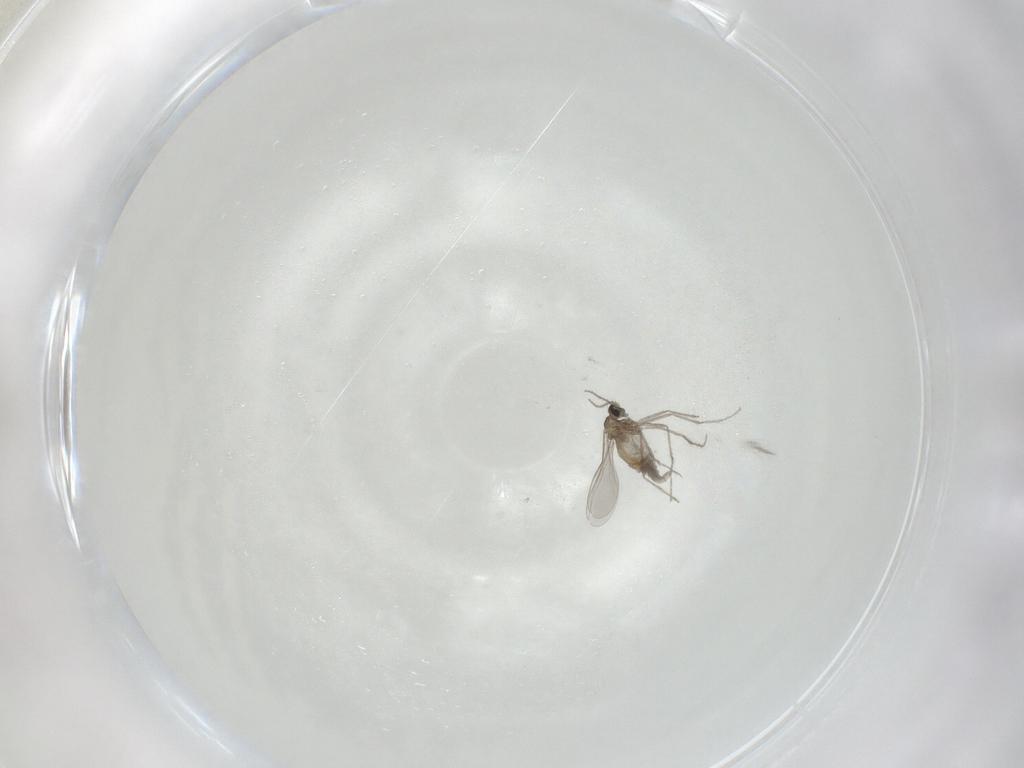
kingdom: Animalia
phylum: Arthropoda
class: Insecta
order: Diptera
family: Cecidomyiidae
